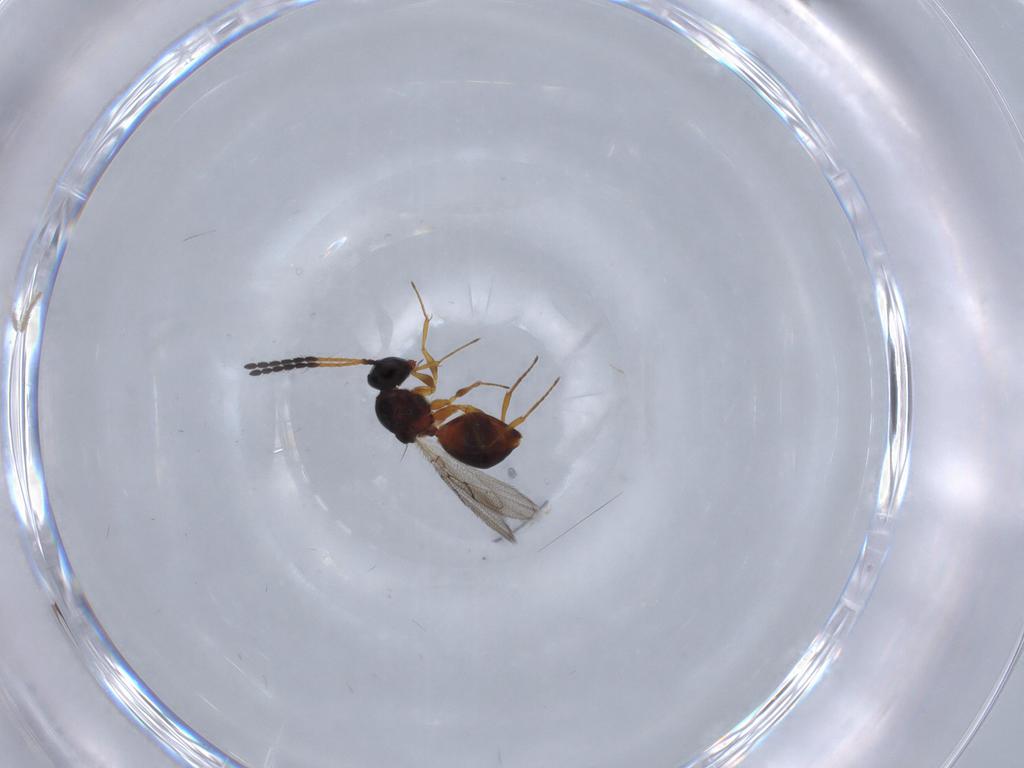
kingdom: Animalia
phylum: Arthropoda
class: Insecta
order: Hymenoptera
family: Figitidae
